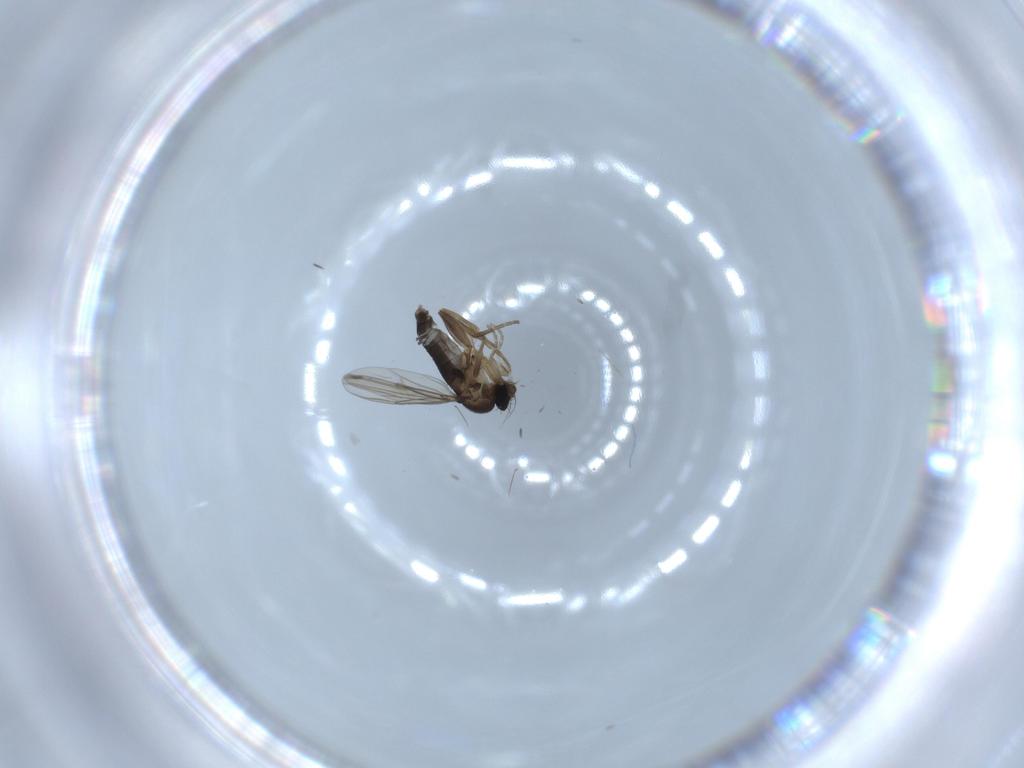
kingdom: Animalia
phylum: Arthropoda
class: Insecta
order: Diptera
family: Phoridae
